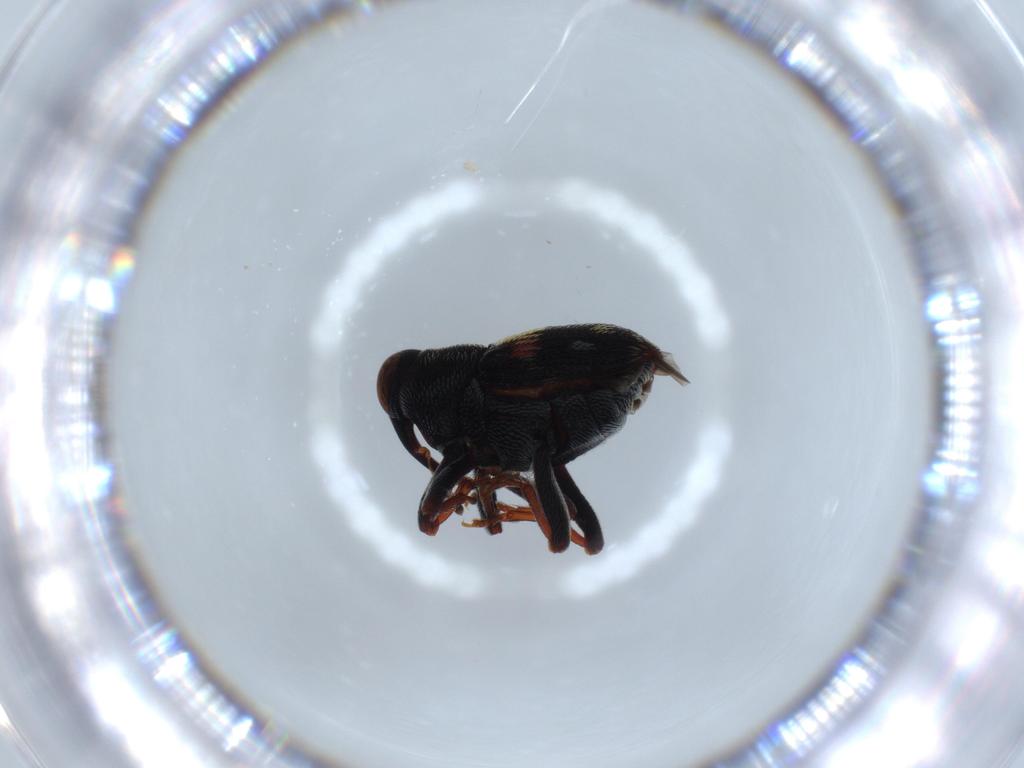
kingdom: Animalia
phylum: Arthropoda
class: Insecta
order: Coleoptera
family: Curculionidae
